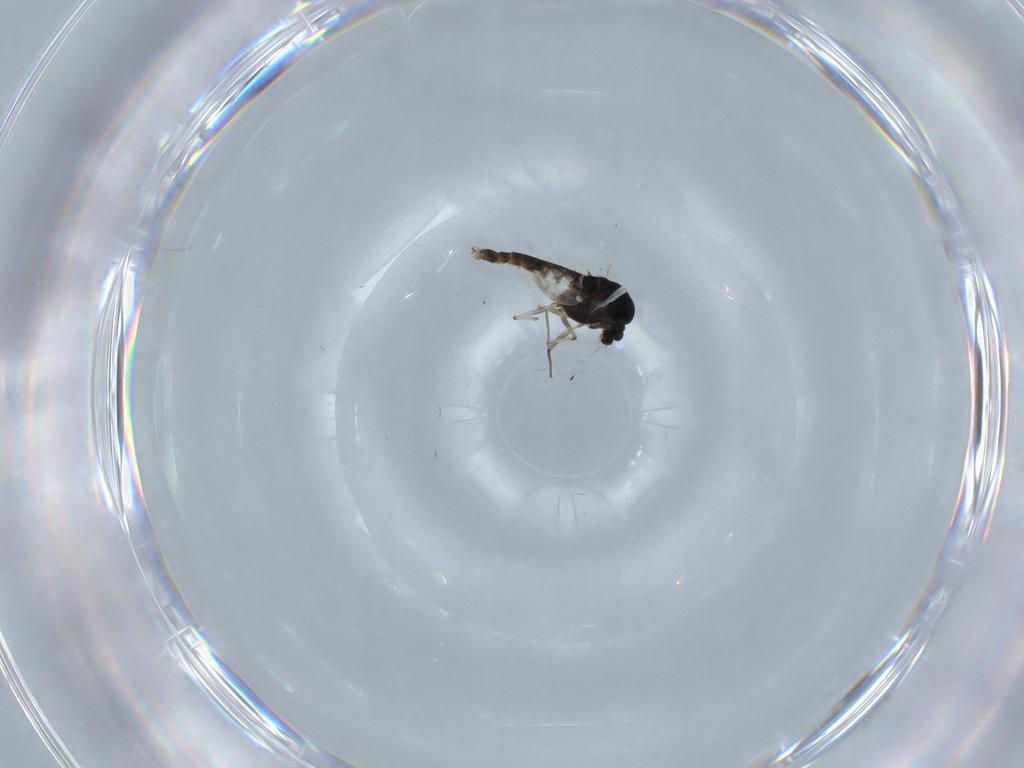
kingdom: Animalia
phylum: Arthropoda
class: Insecta
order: Diptera
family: Chironomidae
